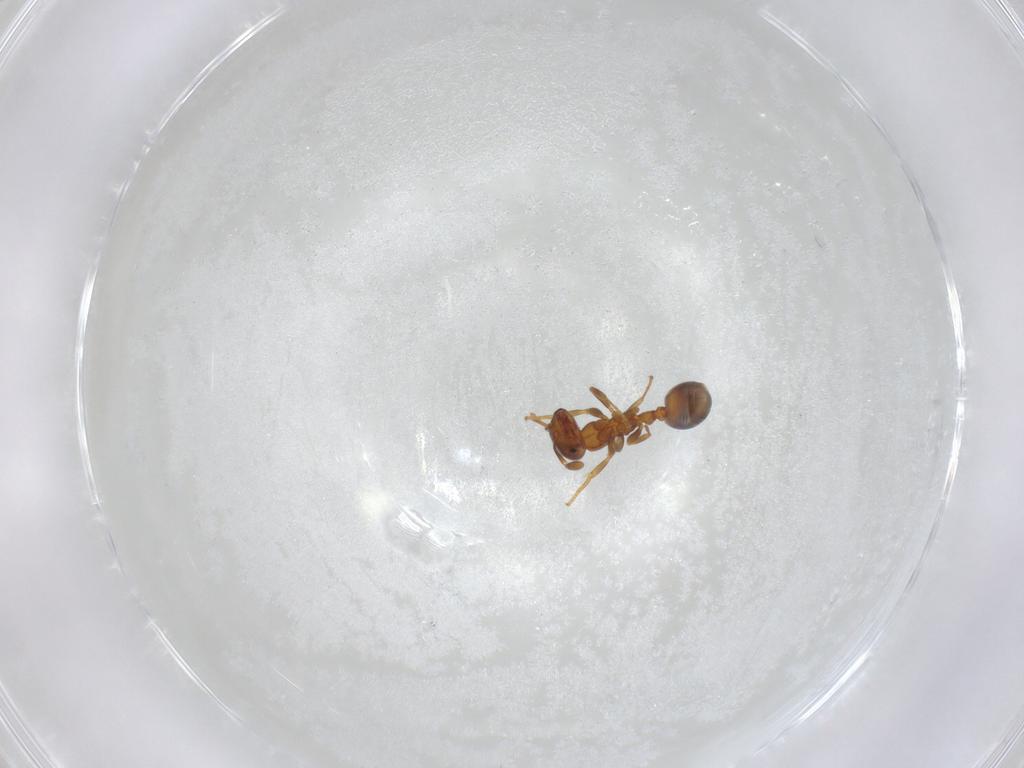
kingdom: Animalia
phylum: Arthropoda
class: Insecta
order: Hymenoptera
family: Formicidae
